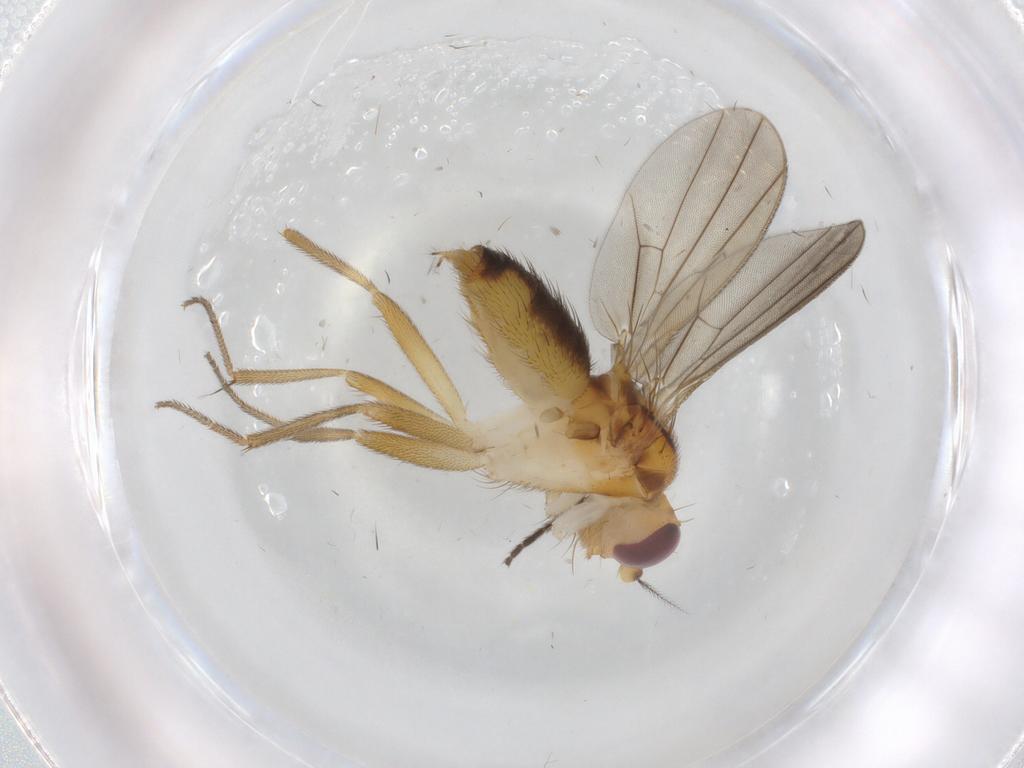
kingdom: Animalia
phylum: Arthropoda
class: Insecta
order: Diptera
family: Clusiidae
